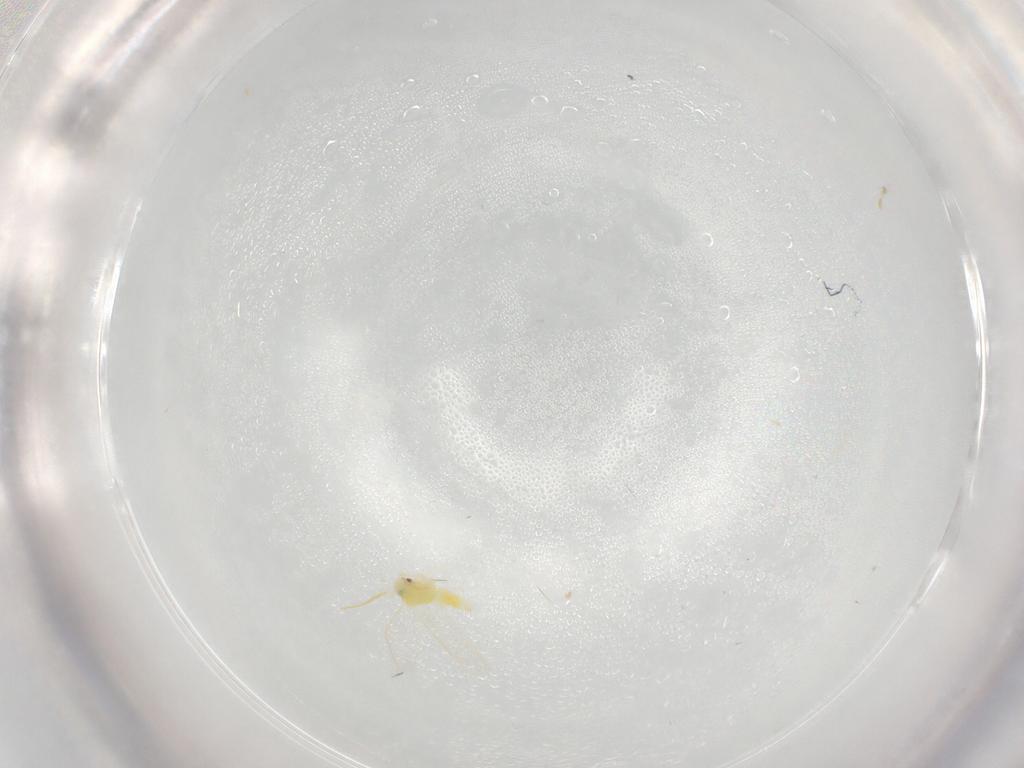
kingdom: Animalia
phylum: Arthropoda
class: Insecta
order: Hemiptera
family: Aleyrodidae
